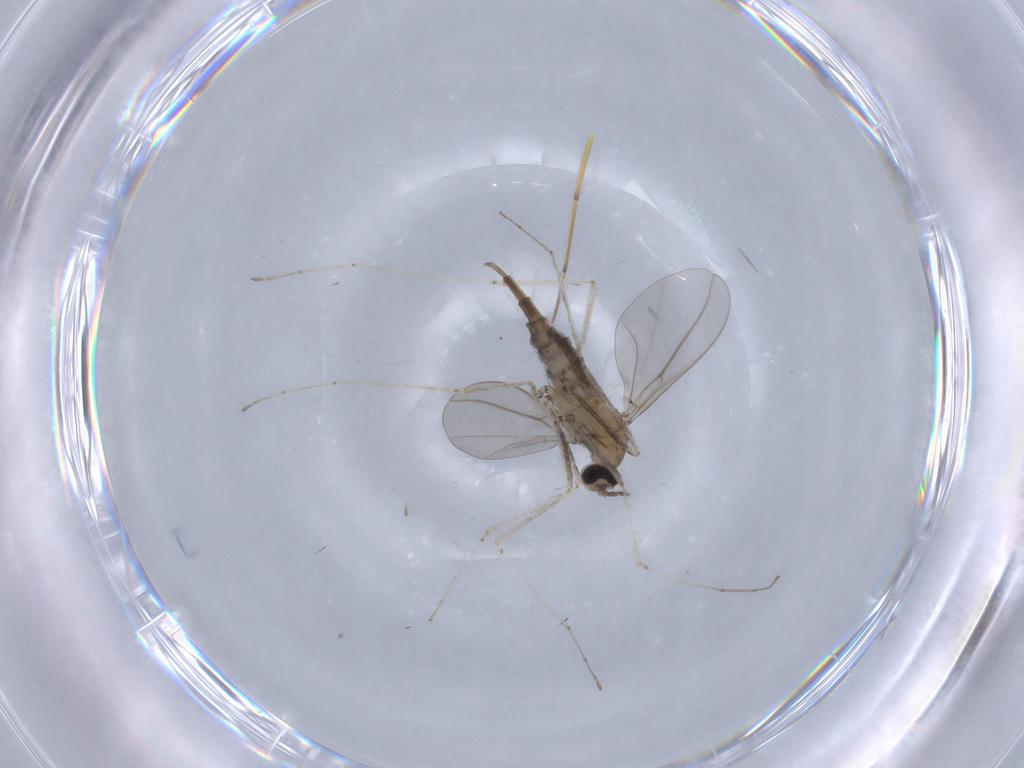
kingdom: Animalia
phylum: Arthropoda
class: Insecta
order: Diptera
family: Cecidomyiidae
